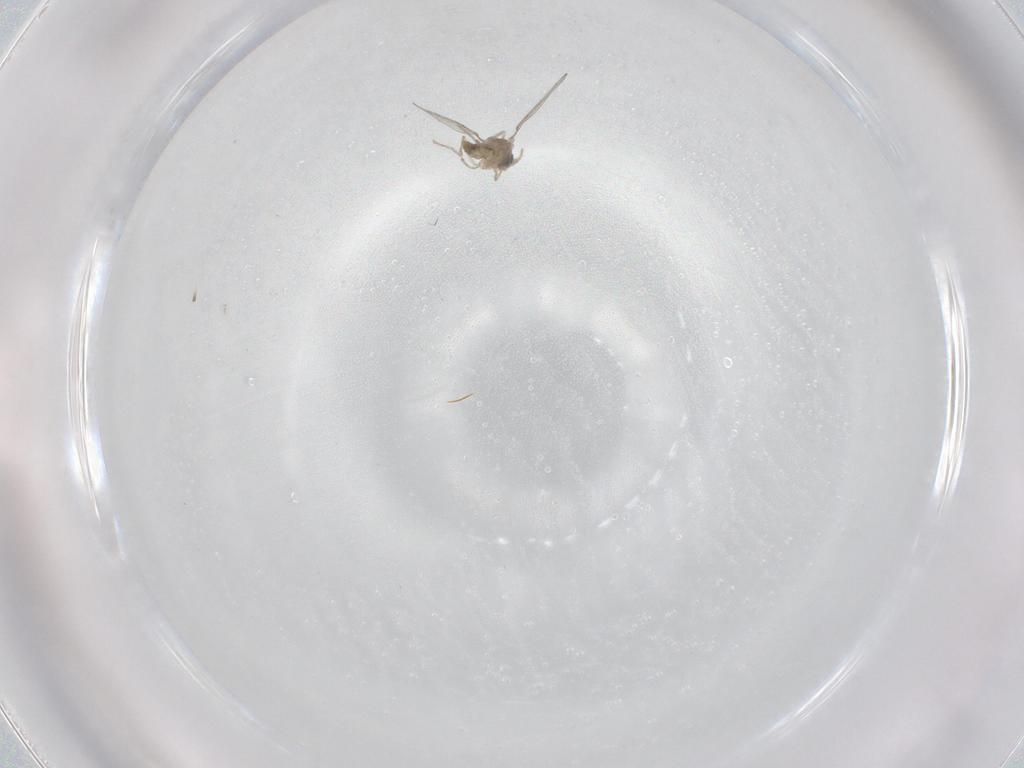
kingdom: Animalia
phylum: Arthropoda
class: Insecta
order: Diptera
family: Cecidomyiidae
